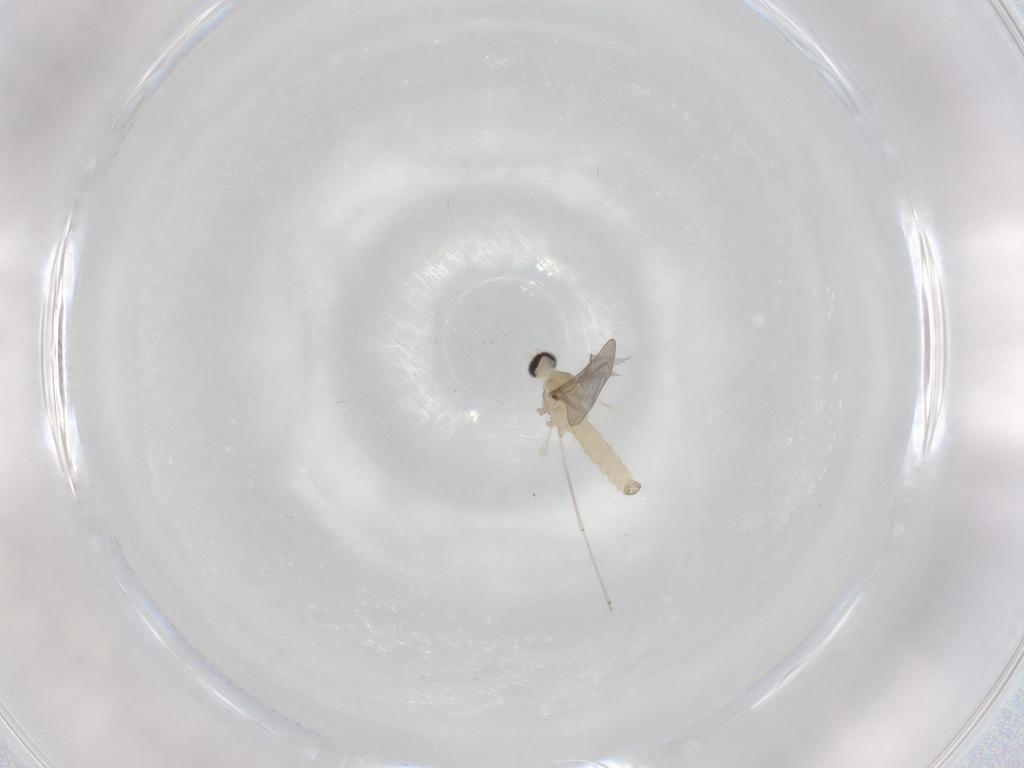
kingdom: Animalia
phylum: Arthropoda
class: Insecta
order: Diptera
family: Cecidomyiidae
